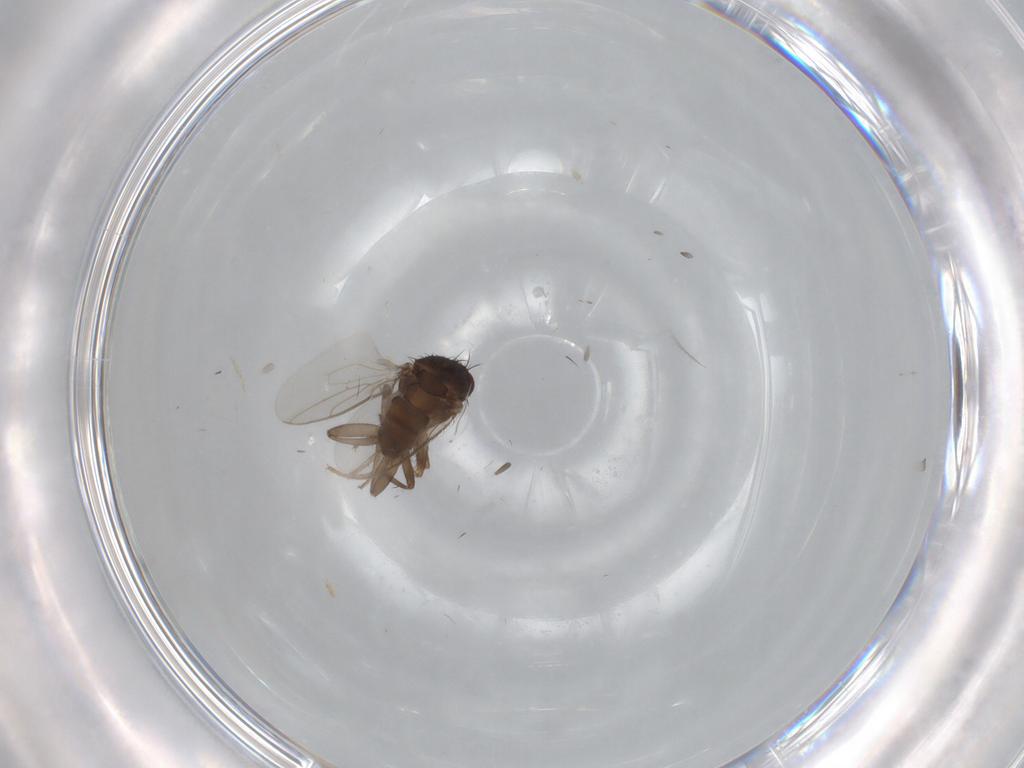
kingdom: Animalia
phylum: Arthropoda
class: Insecta
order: Diptera
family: Sphaeroceridae
